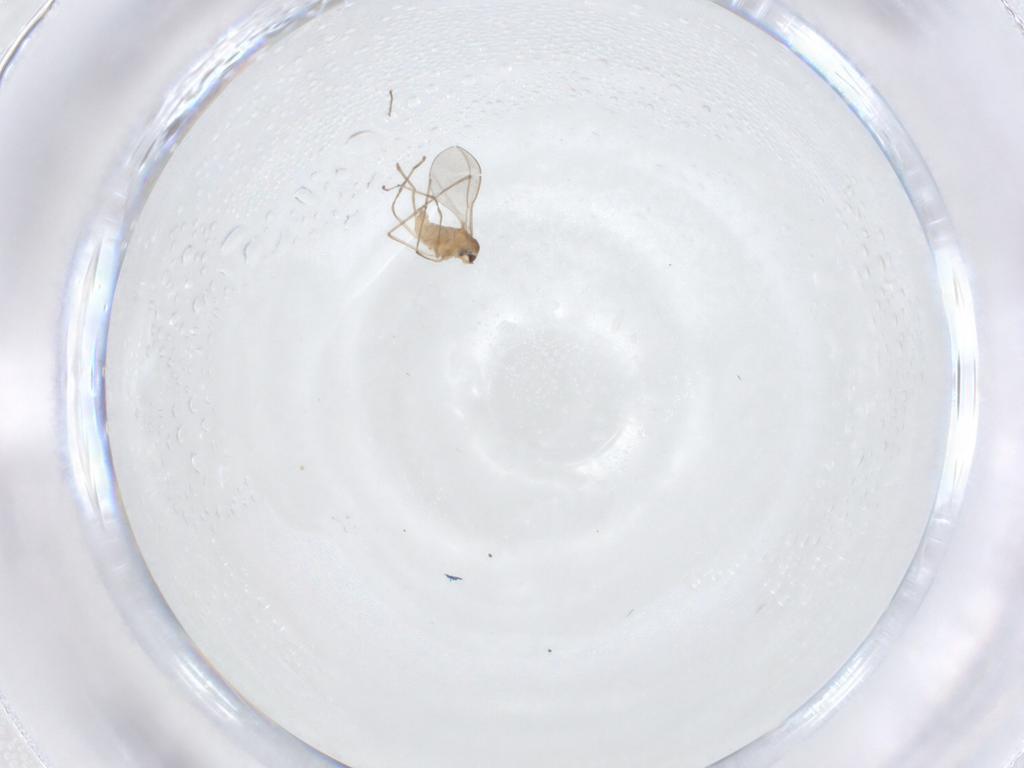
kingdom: Animalia
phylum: Arthropoda
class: Insecta
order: Diptera
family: Cecidomyiidae
